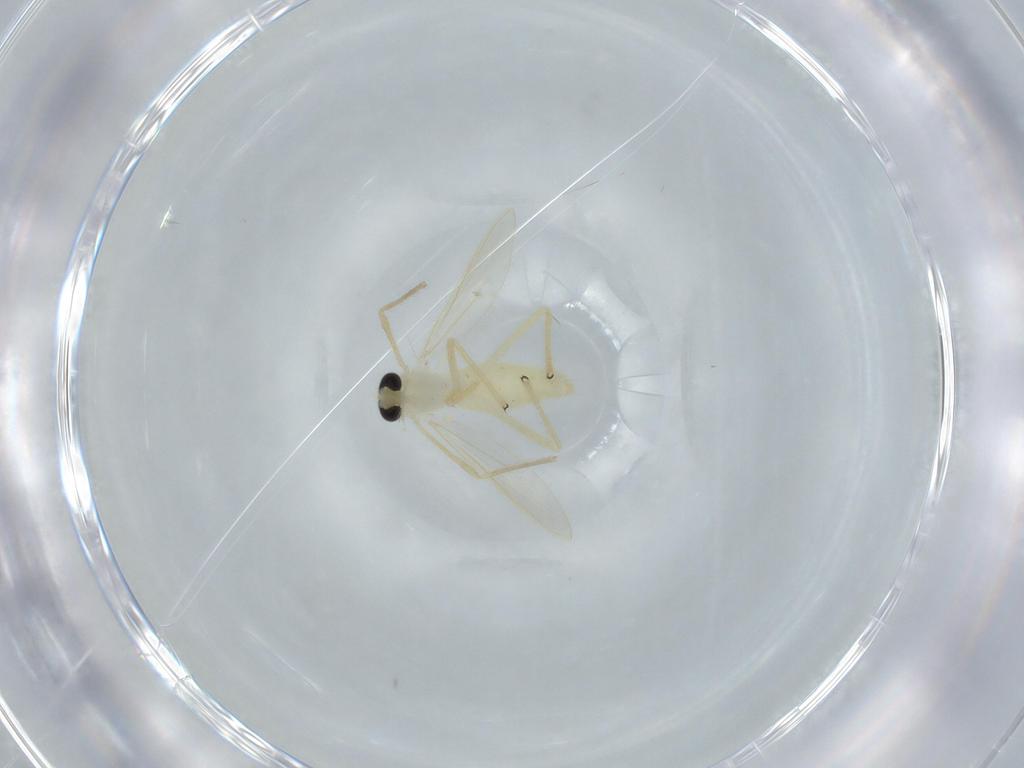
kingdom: Animalia
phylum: Arthropoda
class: Insecta
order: Diptera
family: Chironomidae
